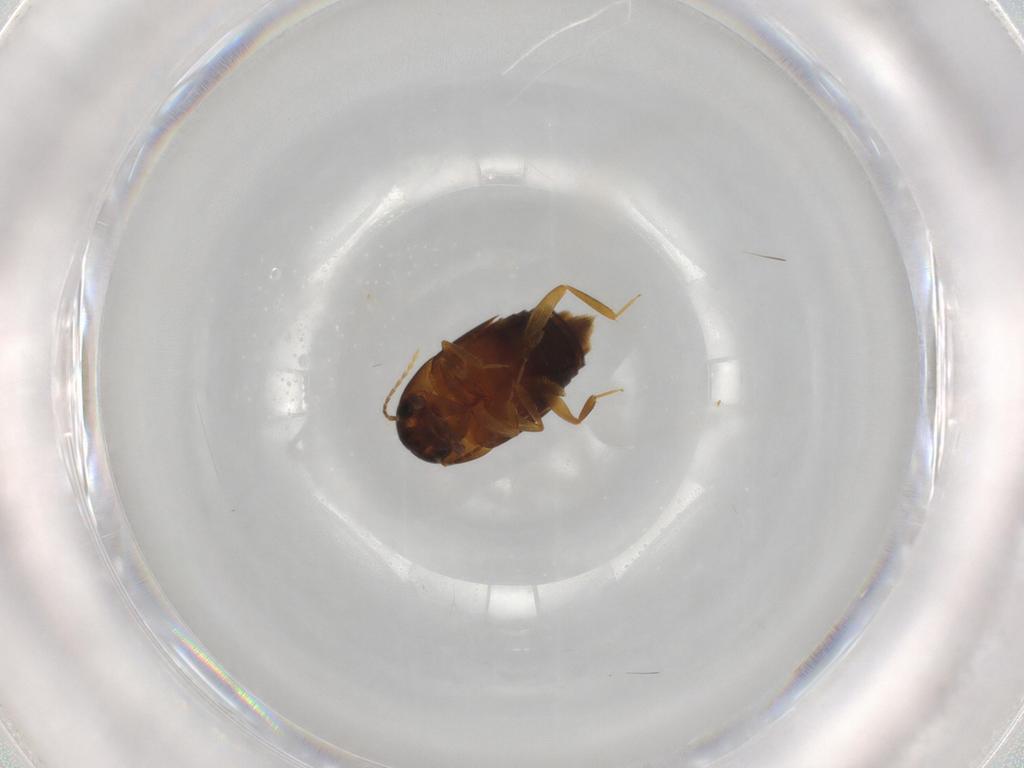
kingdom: Animalia
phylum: Arthropoda
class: Insecta
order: Coleoptera
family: Staphylinidae
